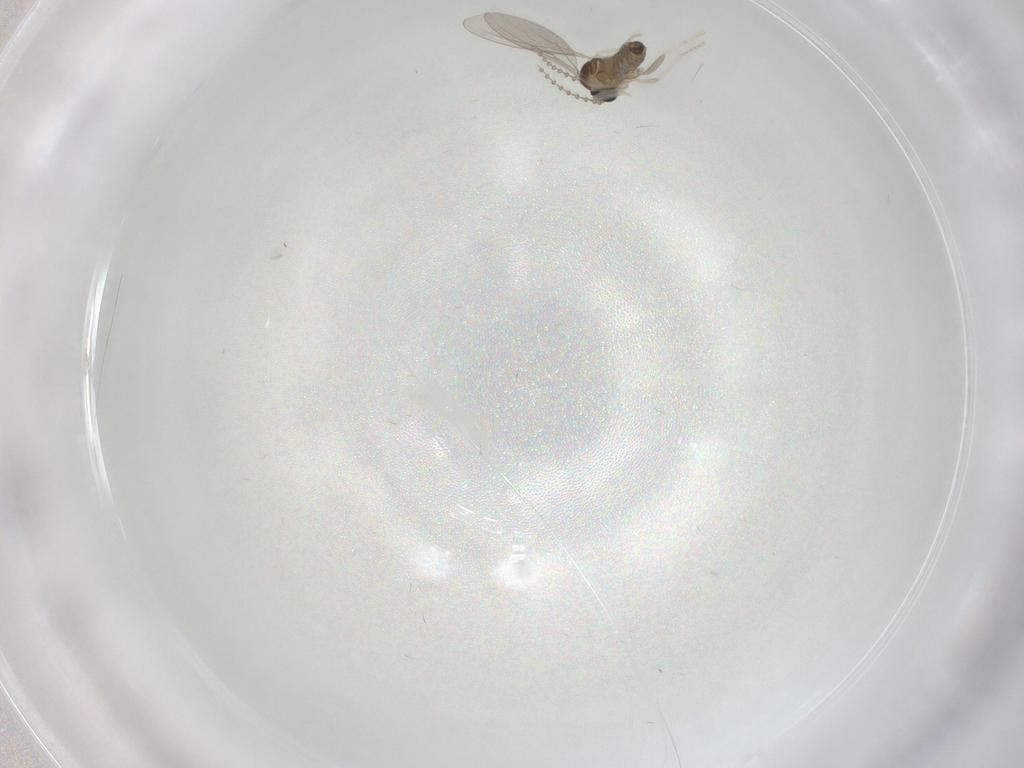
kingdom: Animalia
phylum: Arthropoda
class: Insecta
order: Diptera
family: Cecidomyiidae
